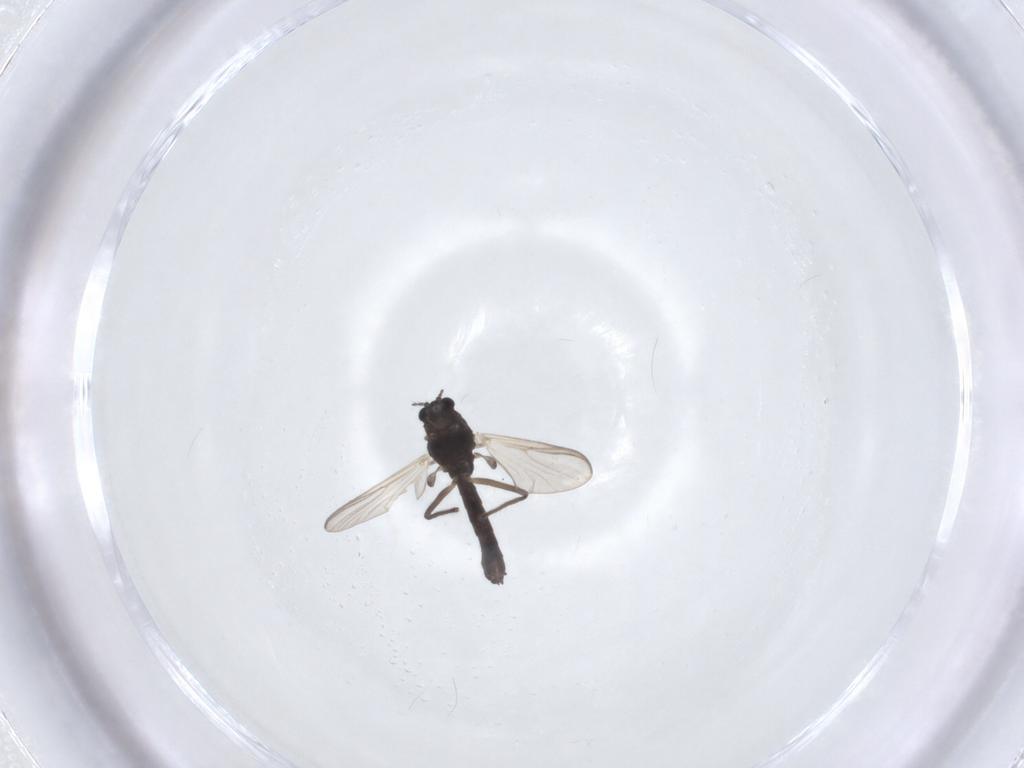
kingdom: Animalia
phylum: Arthropoda
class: Insecta
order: Diptera
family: Chironomidae
